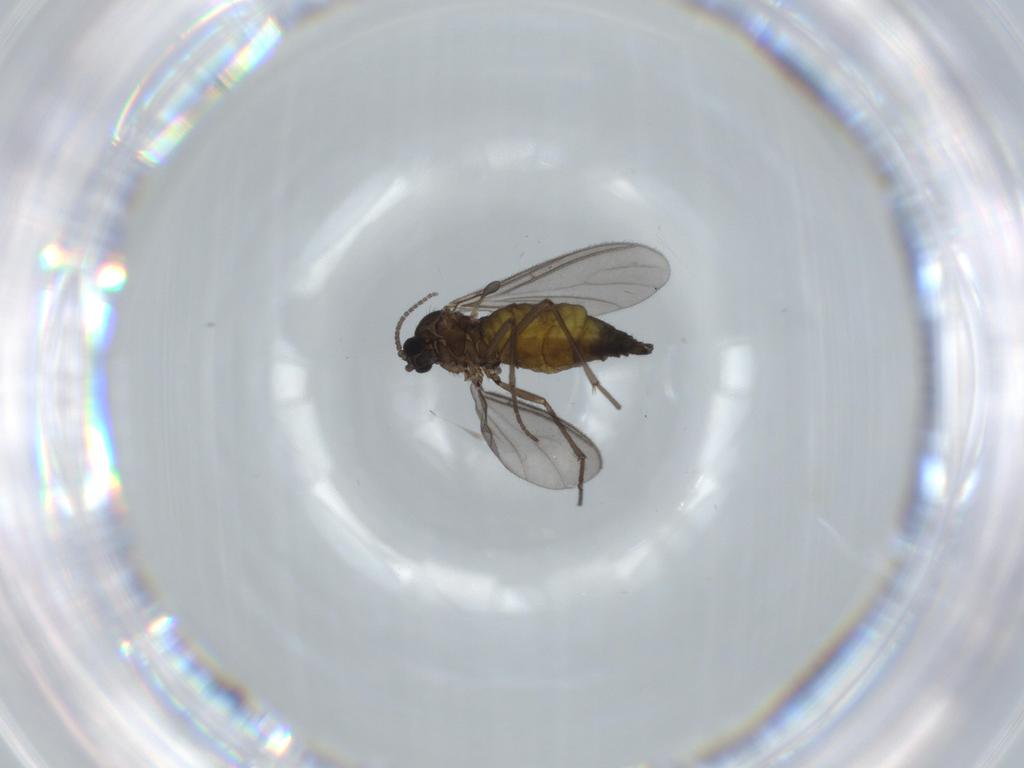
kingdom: Animalia
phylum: Arthropoda
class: Insecta
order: Diptera
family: Sciaridae
